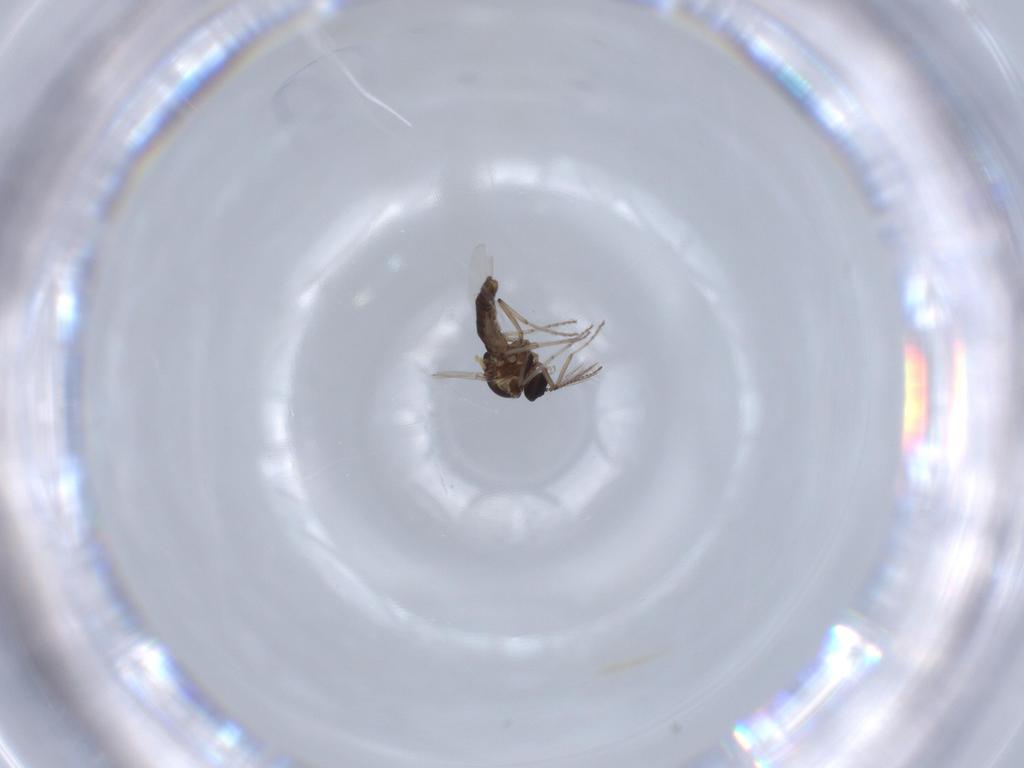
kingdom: Animalia
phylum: Arthropoda
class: Insecta
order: Diptera
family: Ceratopogonidae
